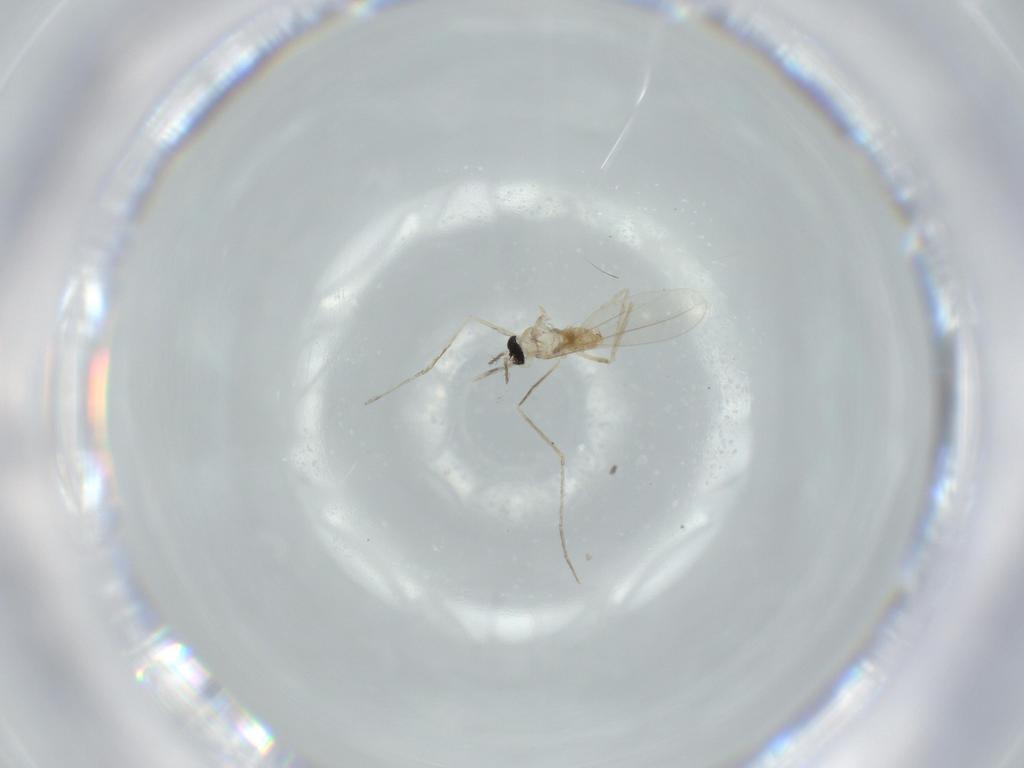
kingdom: Animalia
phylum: Arthropoda
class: Insecta
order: Diptera
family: Cecidomyiidae
